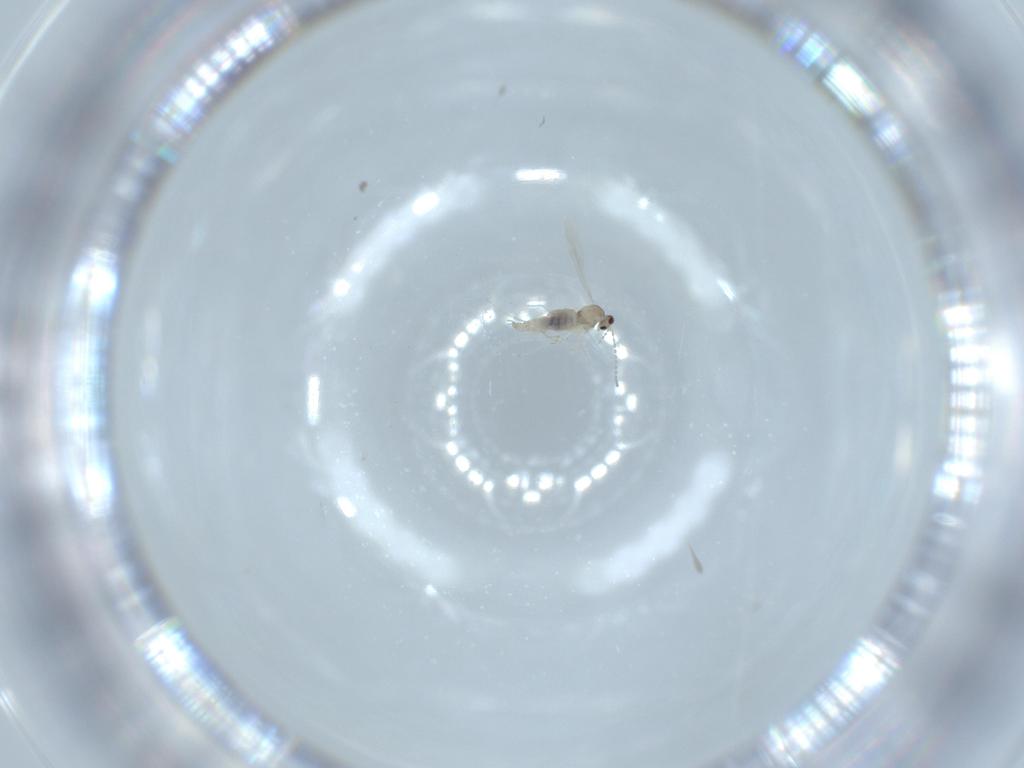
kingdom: Animalia
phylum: Arthropoda
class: Insecta
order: Diptera
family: Cecidomyiidae
